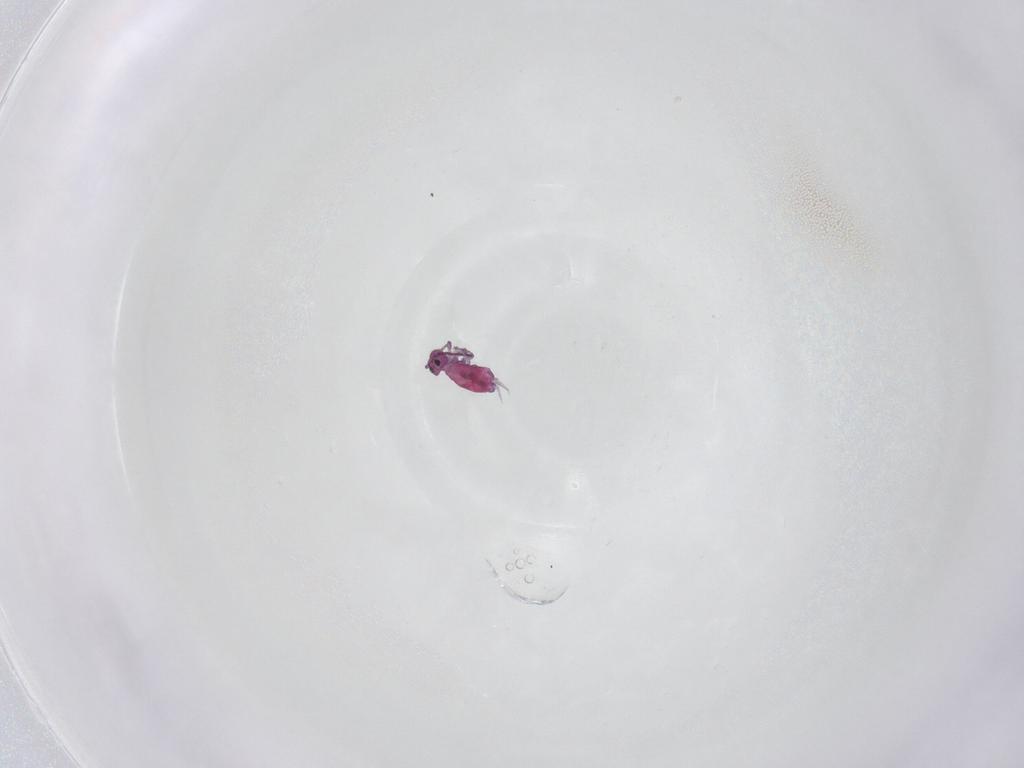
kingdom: Animalia
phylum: Arthropoda
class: Collembola
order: Symphypleona
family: Sminthuridae
